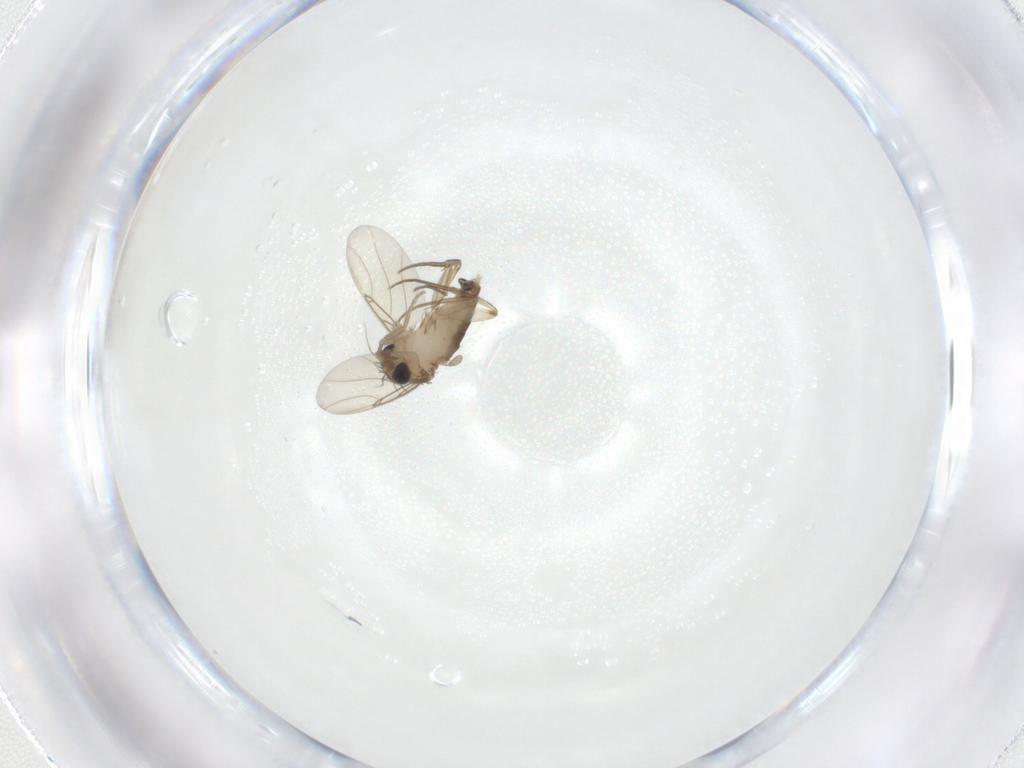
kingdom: Animalia
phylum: Arthropoda
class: Insecta
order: Diptera
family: Phoridae
